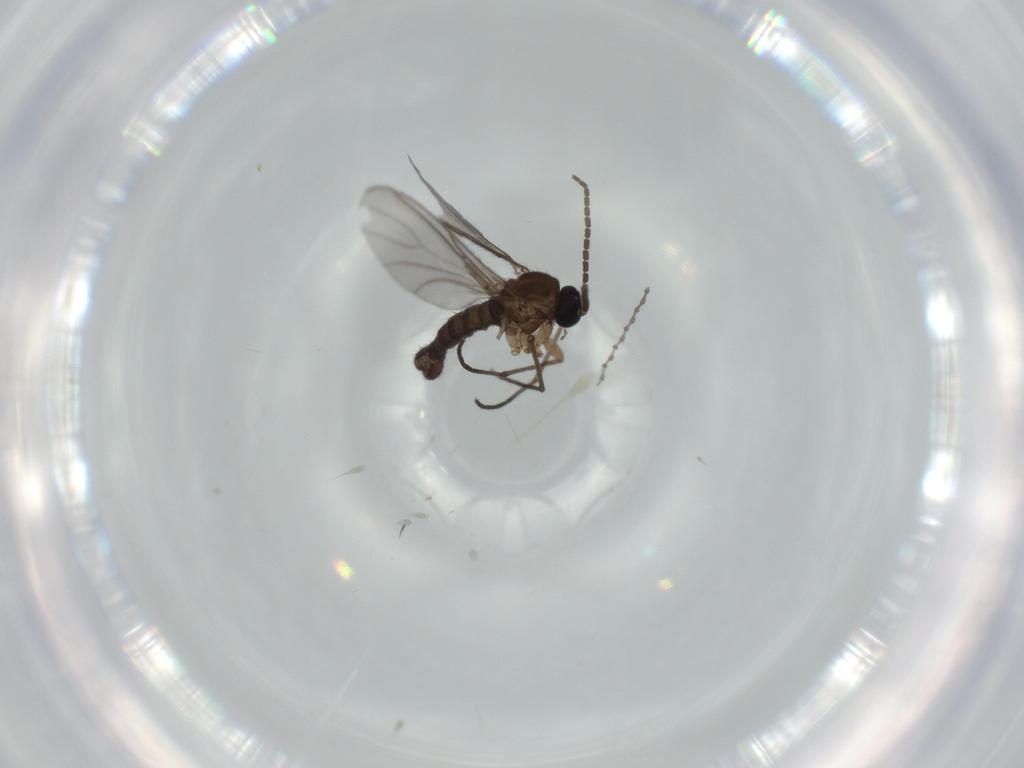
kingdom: Animalia
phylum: Arthropoda
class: Insecta
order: Diptera
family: Sciaridae
